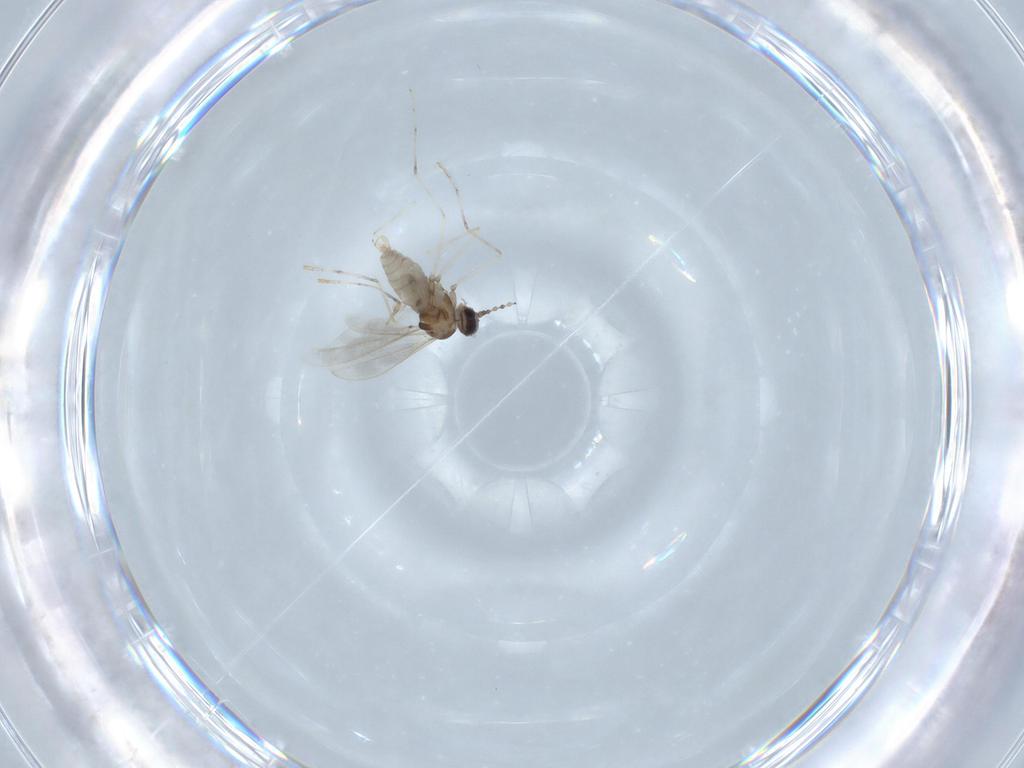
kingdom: Animalia
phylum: Arthropoda
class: Insecta
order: Diptera
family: Cecidomyiidae
